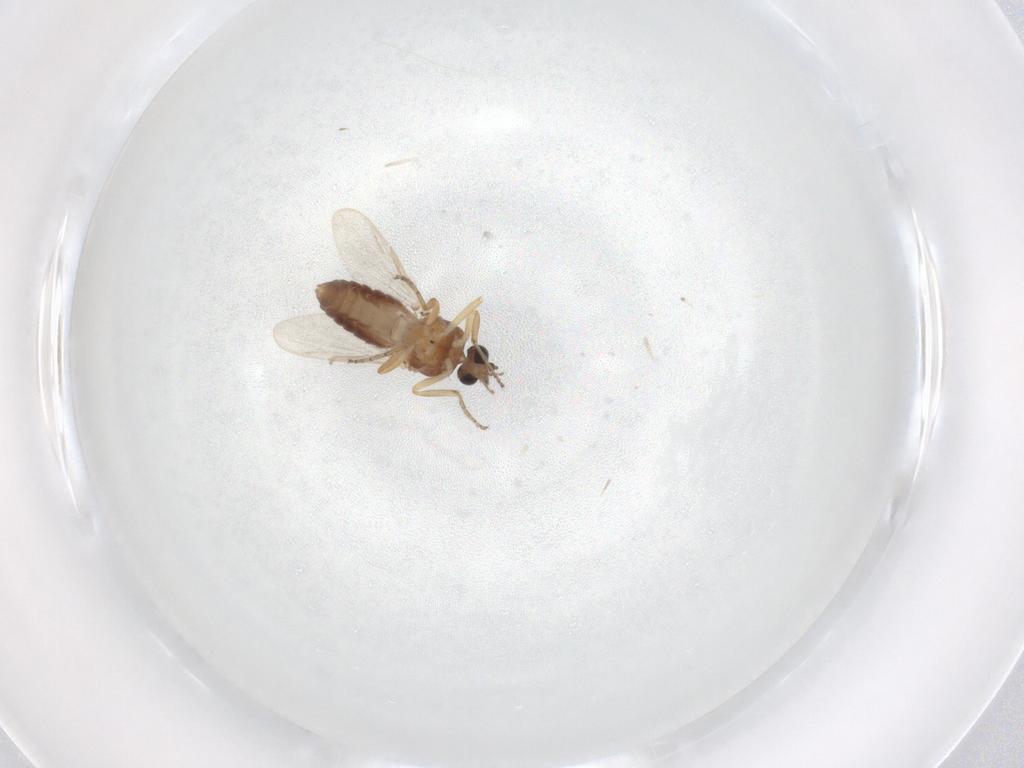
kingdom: Animalia
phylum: Arthropoda
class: Insecta
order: Diptera
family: Ceratopogonidae
